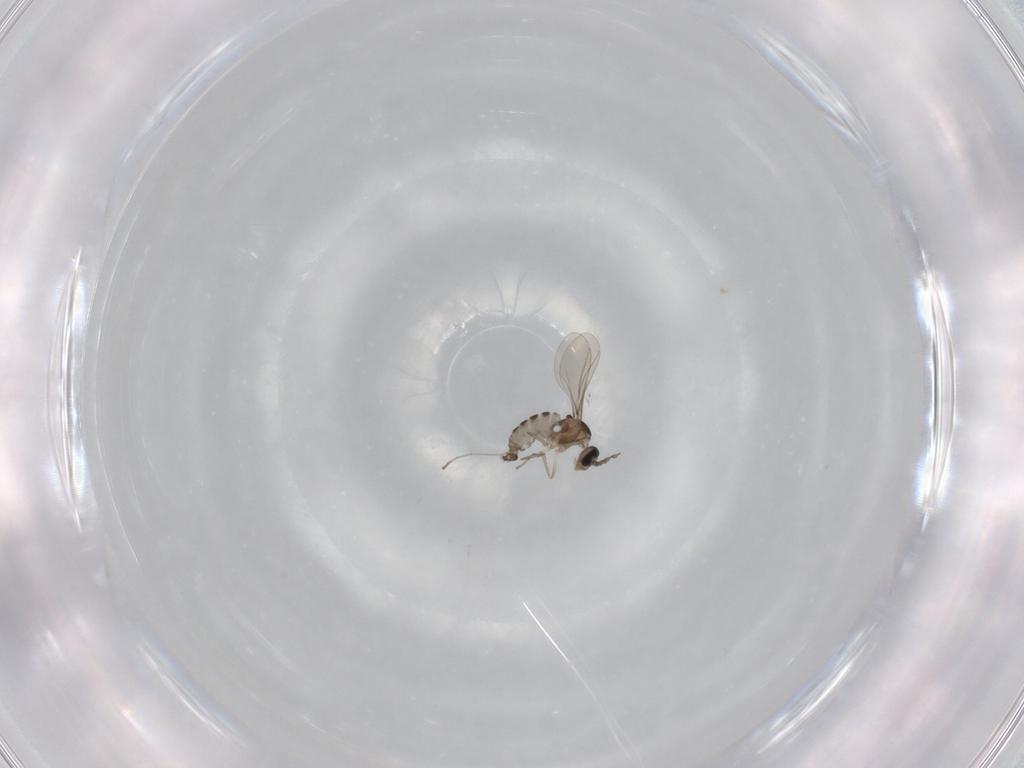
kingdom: Animalia
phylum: Arthropoda
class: Insecta
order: Diptera
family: Cecidomyiidae
